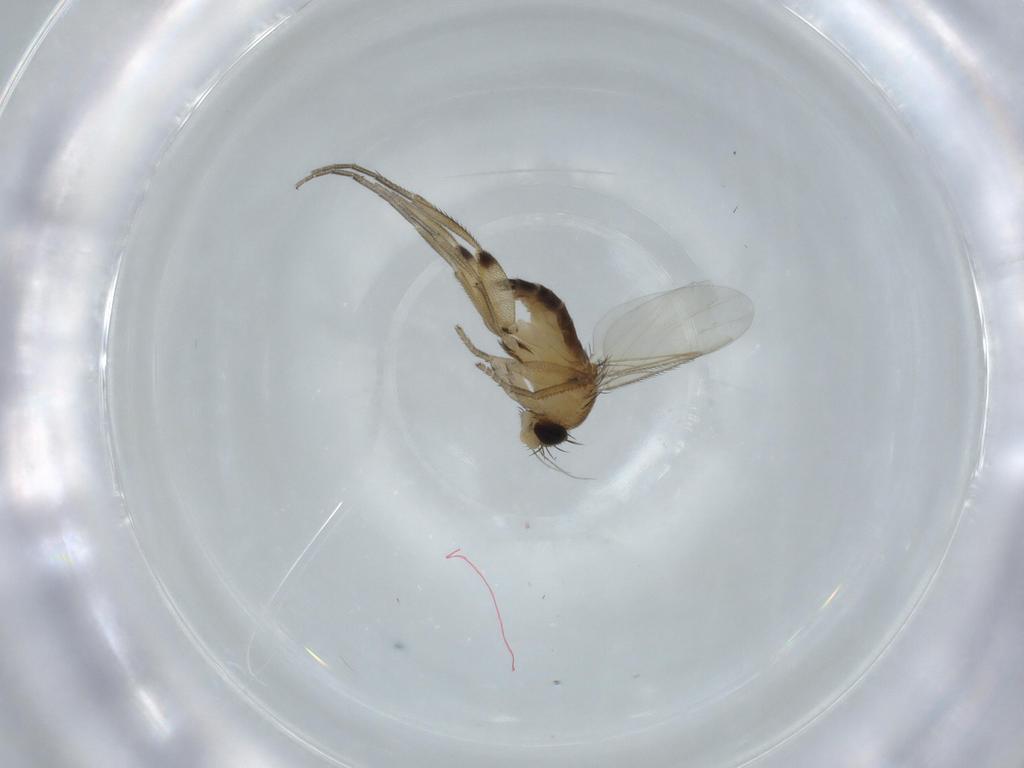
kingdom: Animalia
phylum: Arthropoda
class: Insecta
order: Diptera
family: Phoridae
